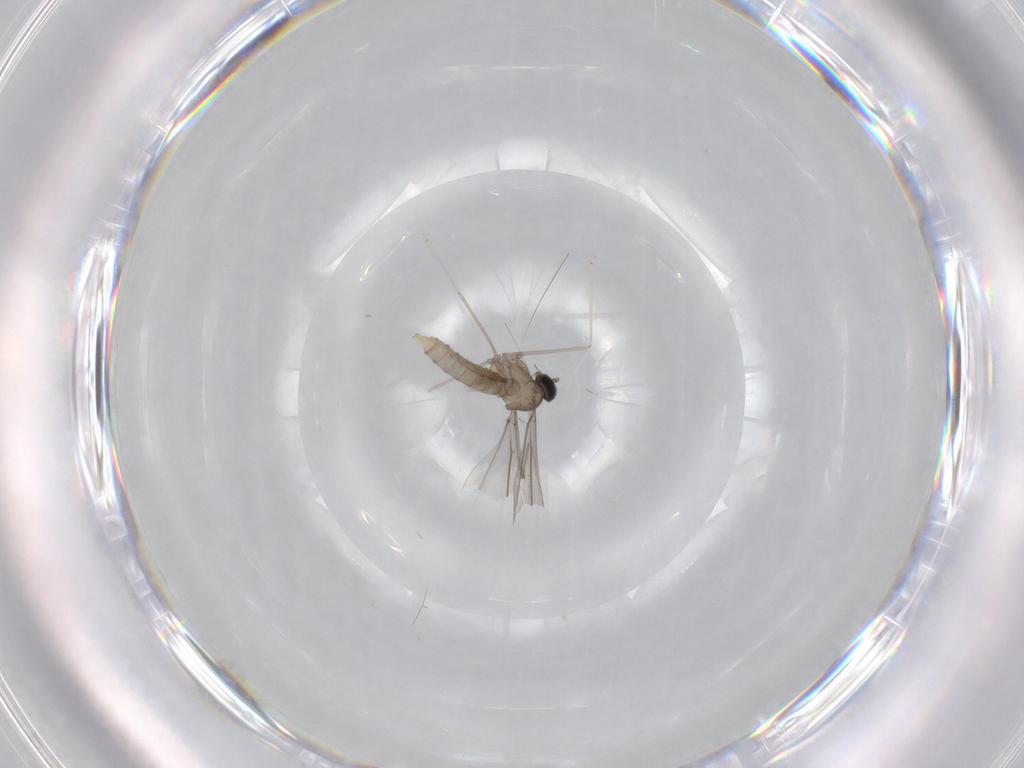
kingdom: Animalia
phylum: Arthropoda
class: Insecta
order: Diptera
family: Cecidomyiidae
